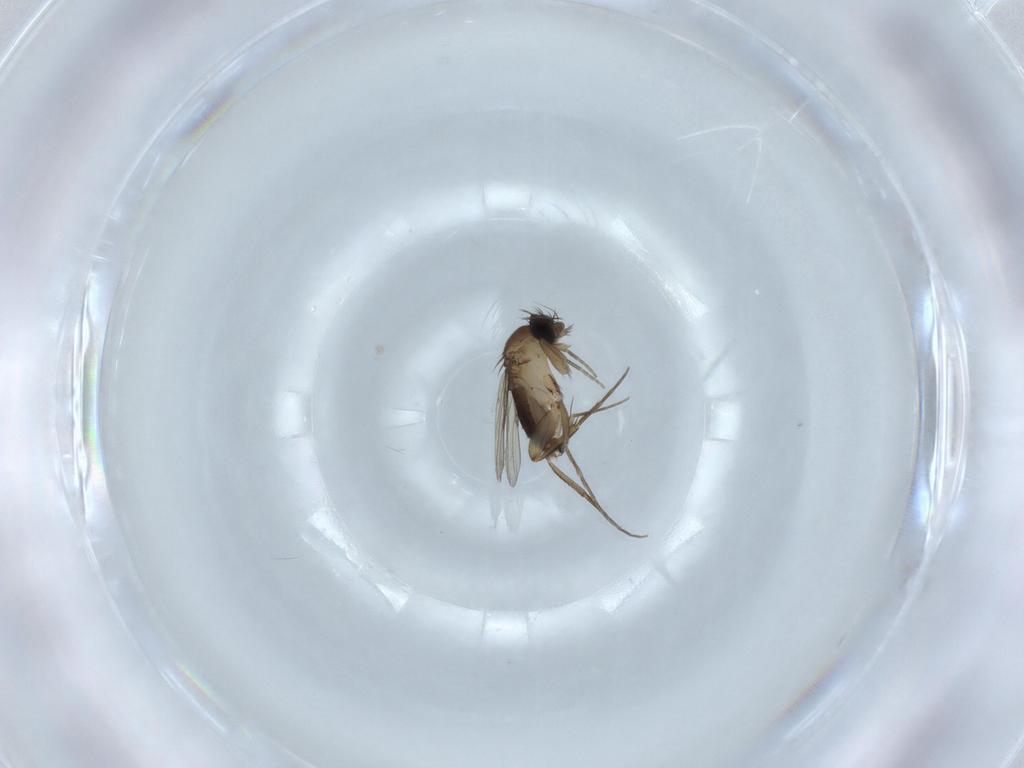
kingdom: Animalia
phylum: Arthropoda
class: Insecta
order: Diptera
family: Phoridae
